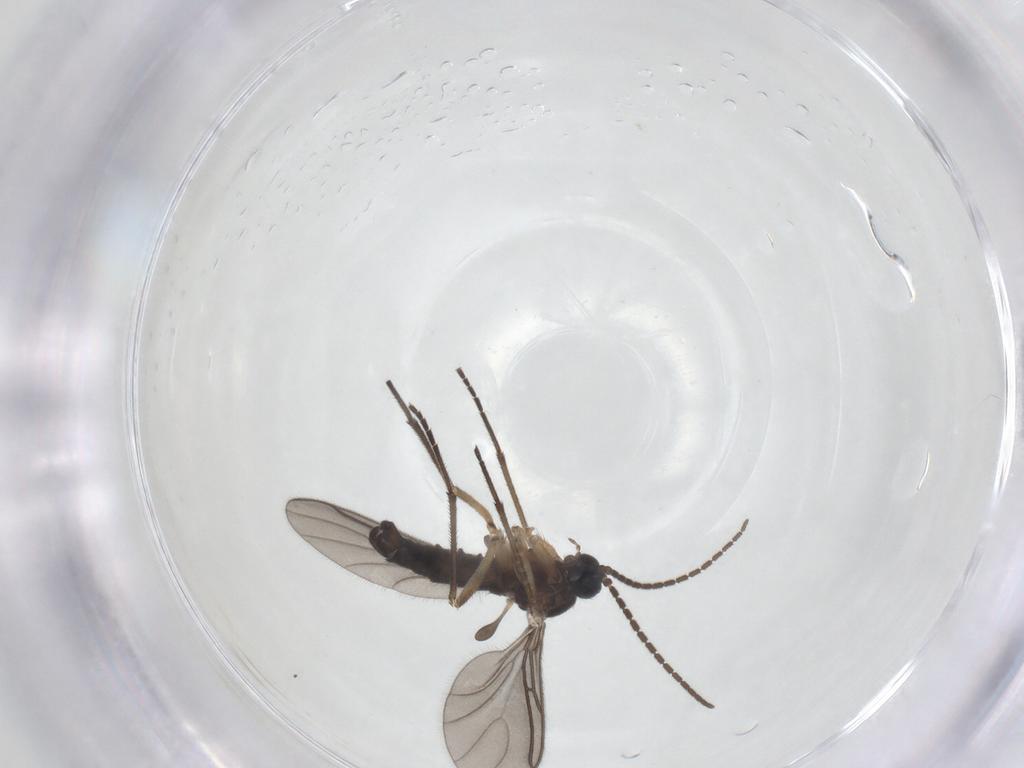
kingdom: Animalia
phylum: Arthropoda
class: Insecta
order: Diptera
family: Sciaridae
